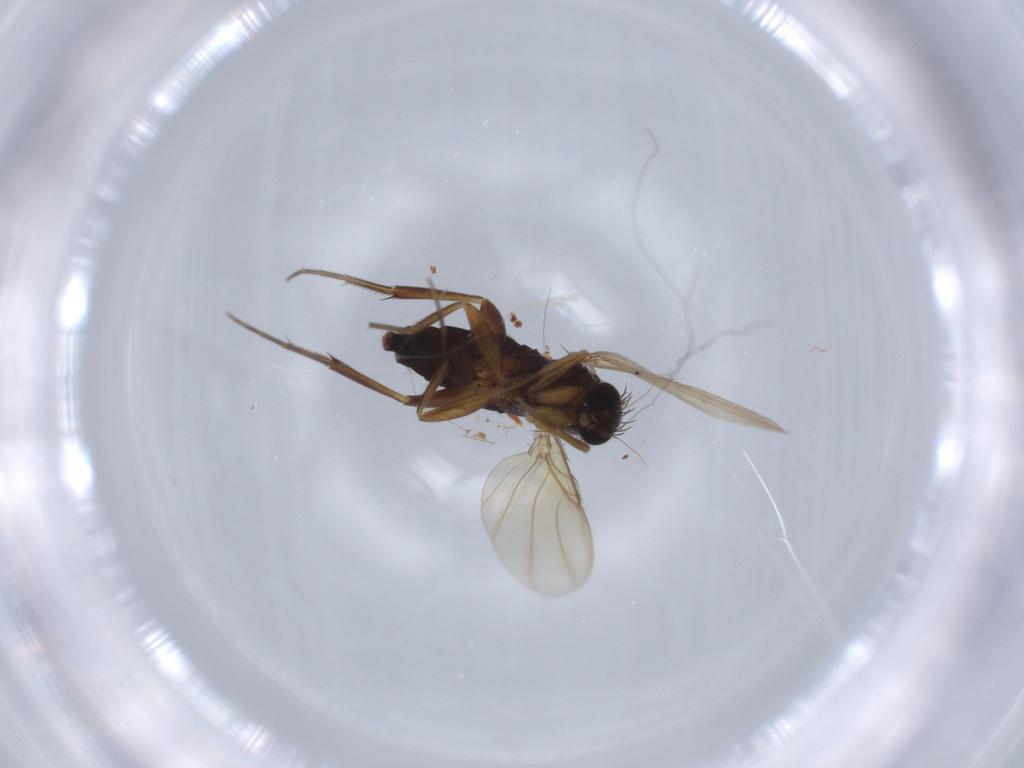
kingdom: Animalia
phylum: Arthropoda
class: Insecta
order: Diptera
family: Phoridae
